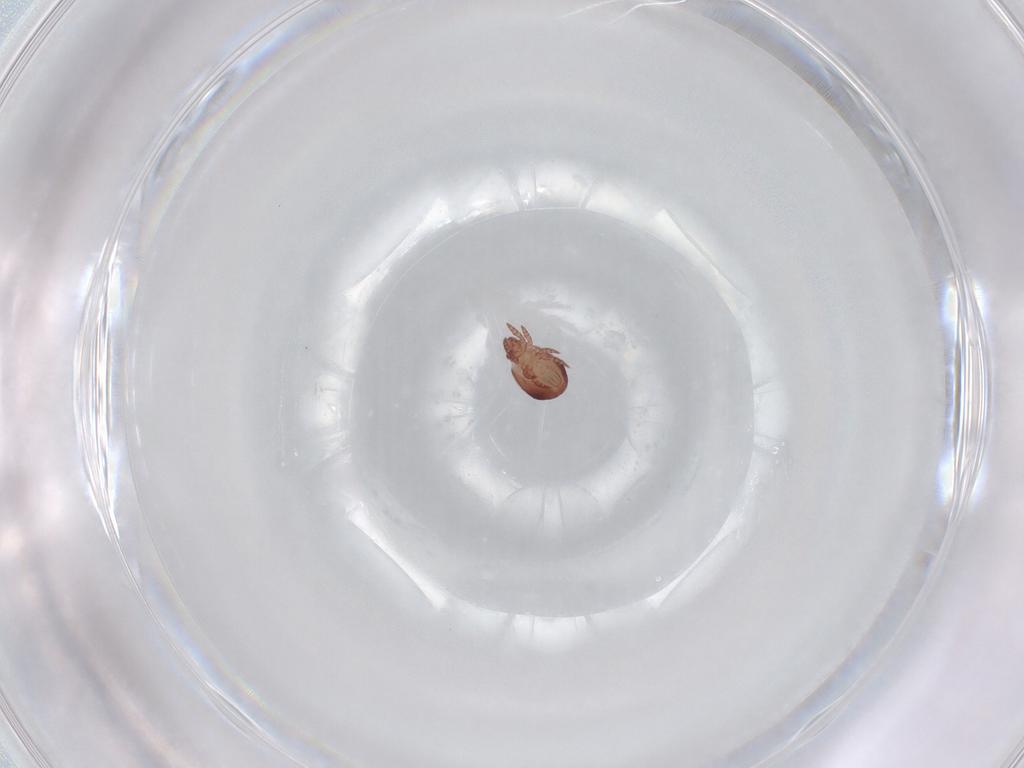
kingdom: Animalia
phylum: Arthropoda
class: Arachnida
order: Sarcoptiformes
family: Trhypochthoniidae
